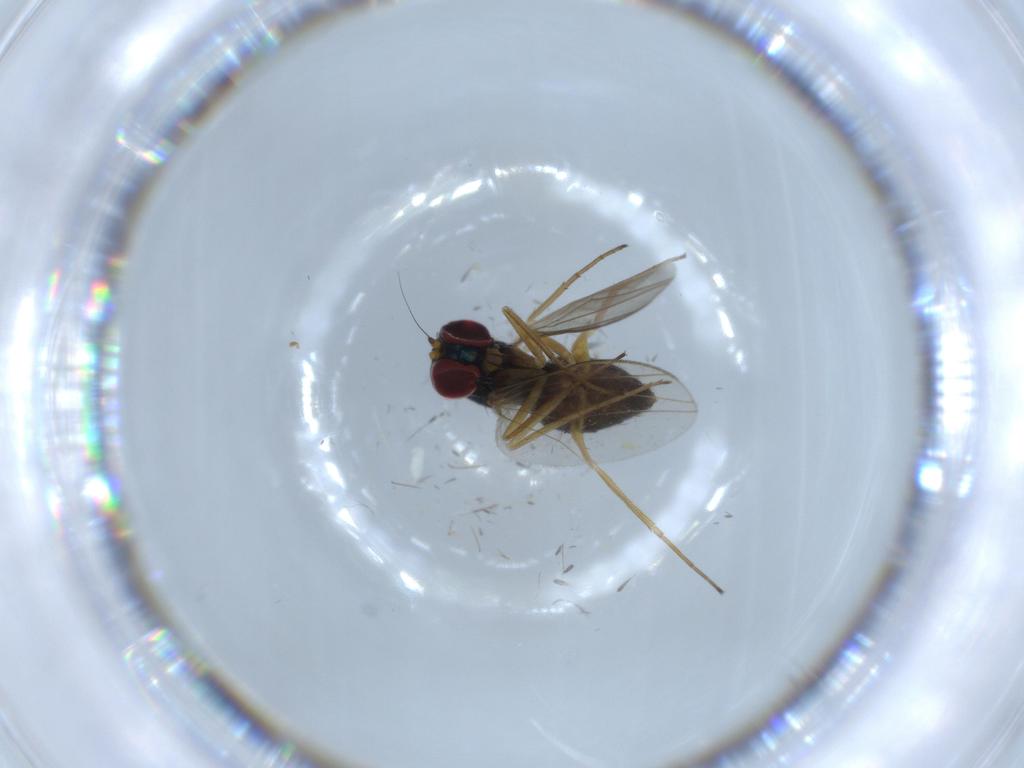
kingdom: Animalia
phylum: Arthropoda
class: Insecta
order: Diptera
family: Dolichopodidae
